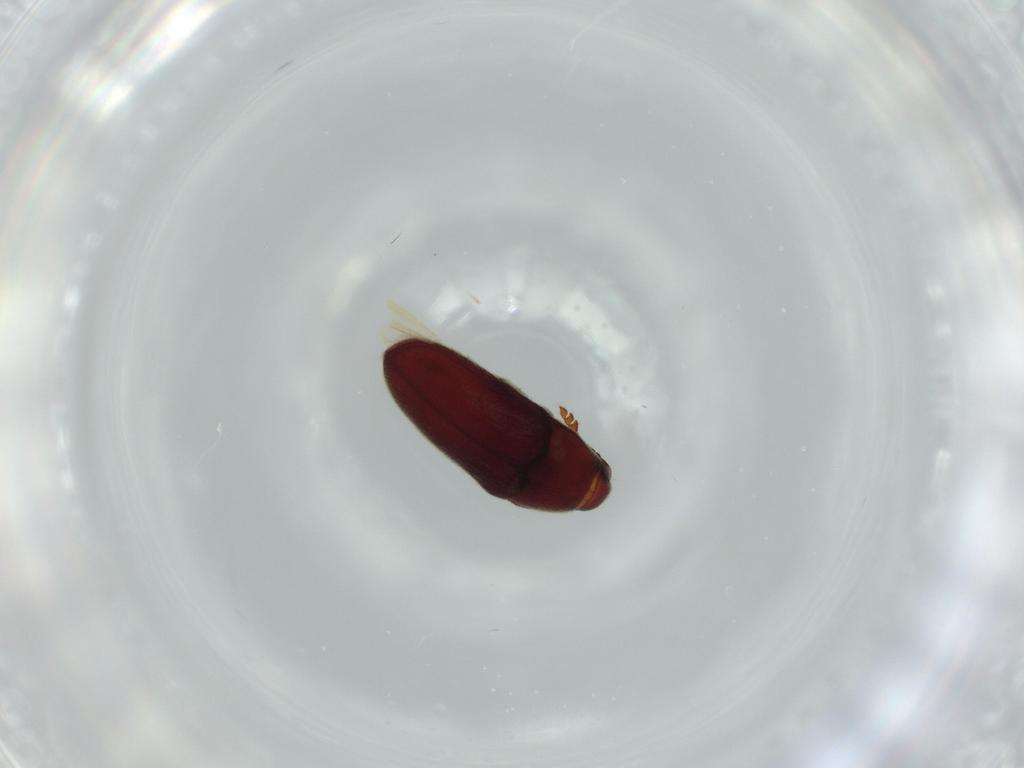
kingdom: Animalia
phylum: Arthropoda
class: Insecta
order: Coleoptera
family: Throscidae
